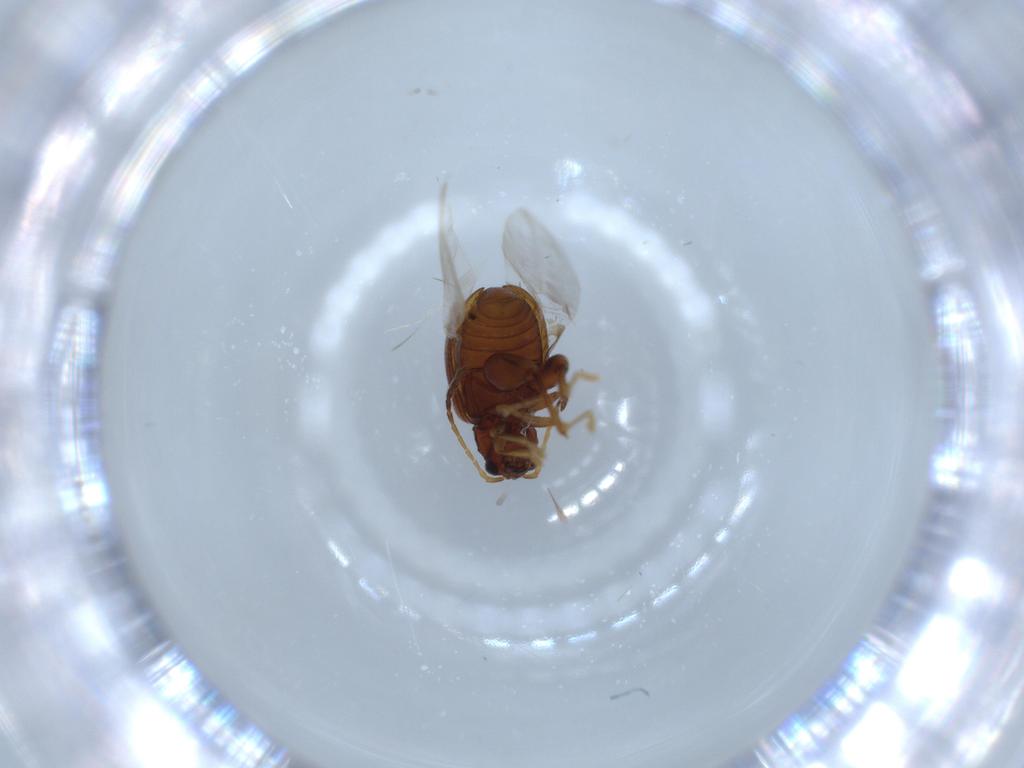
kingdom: Animalia
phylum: Arthropoda
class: Insecta
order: Coleoptera
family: Chrysomelidae
